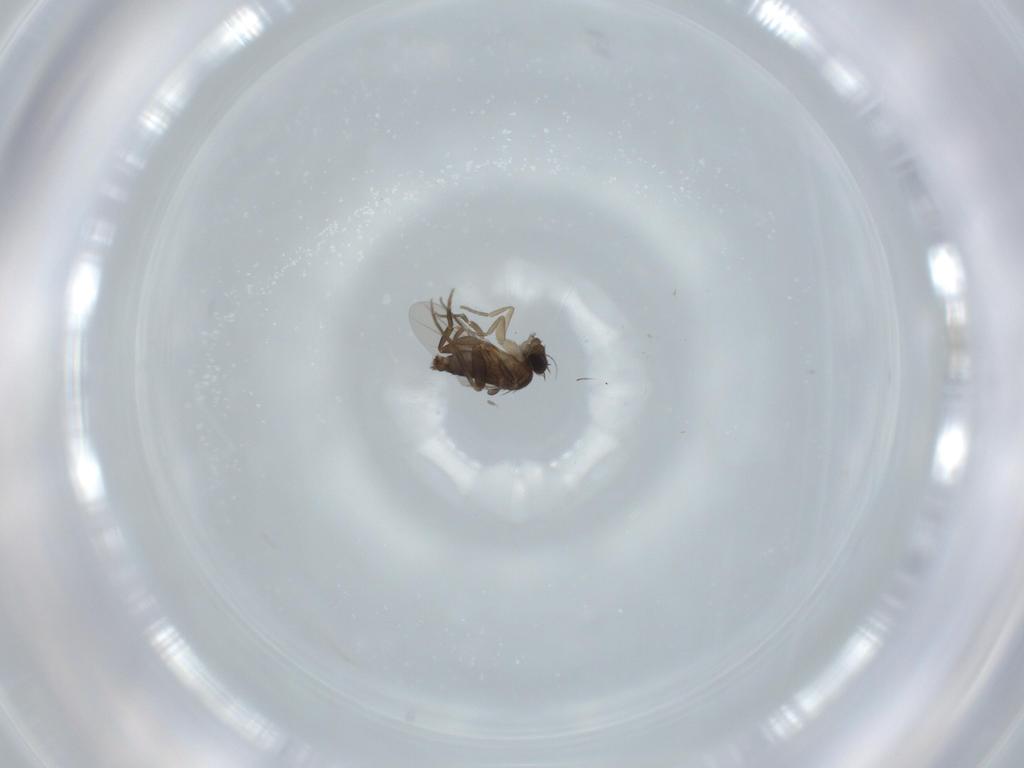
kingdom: Animalia
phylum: Arthropoda
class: Insecta
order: Diptera
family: Phoridae
